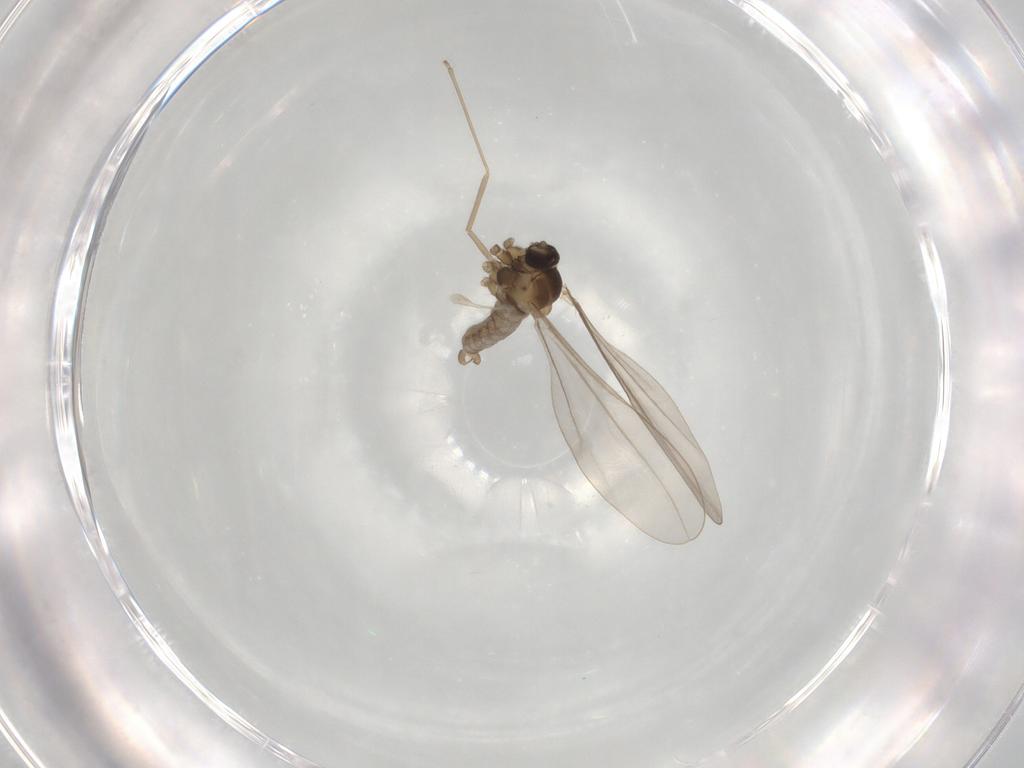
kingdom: Animalia
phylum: Arthropoda
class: Insecta
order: Diptera
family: Cecidomyiidae
